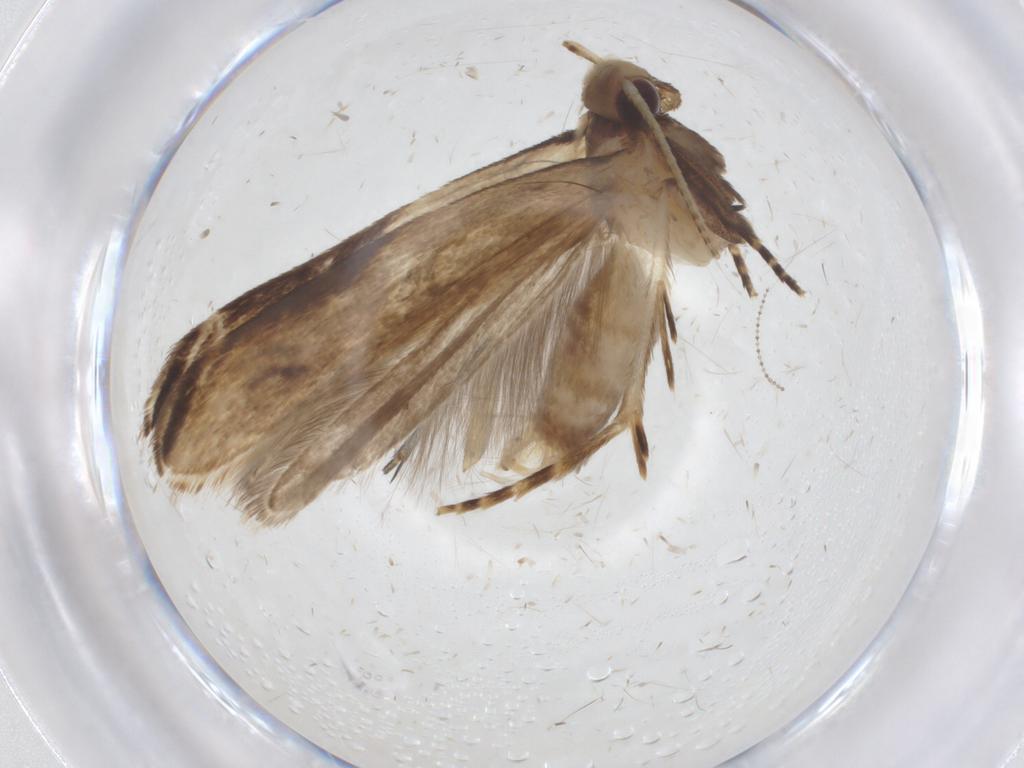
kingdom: Animalia
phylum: Arthropoda
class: Insecta
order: Lepidoptera
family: Gelechiidae
